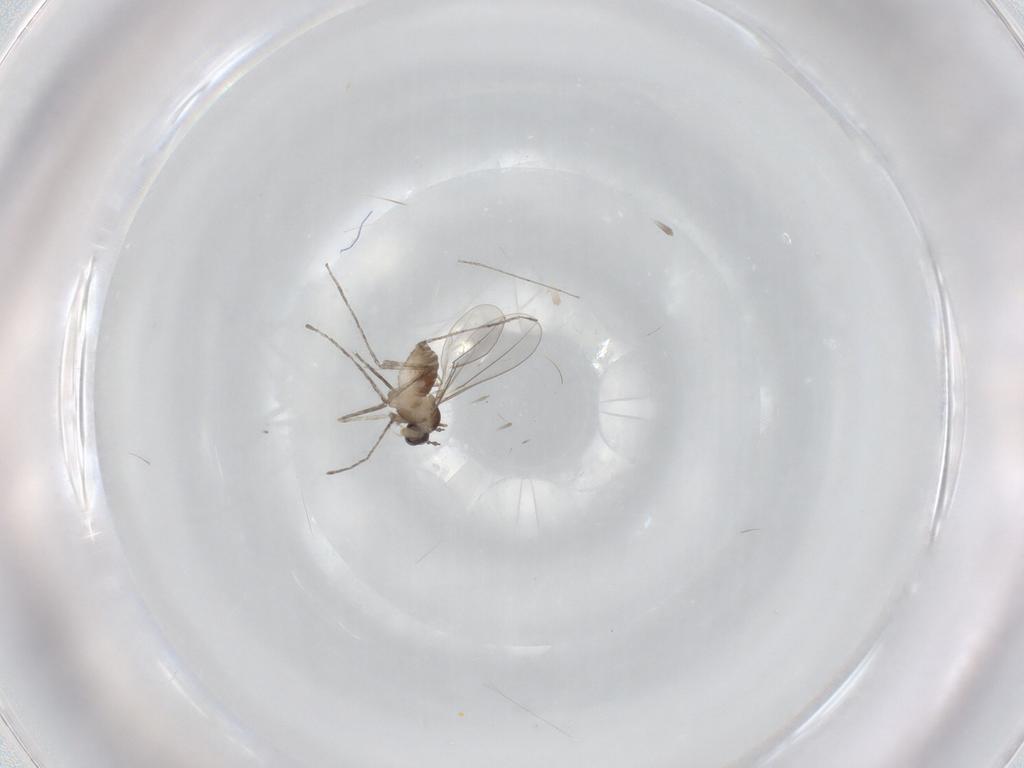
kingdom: Animalia
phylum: Arthropoda
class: Insecta
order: Diptera
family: Cecidomyiidae
